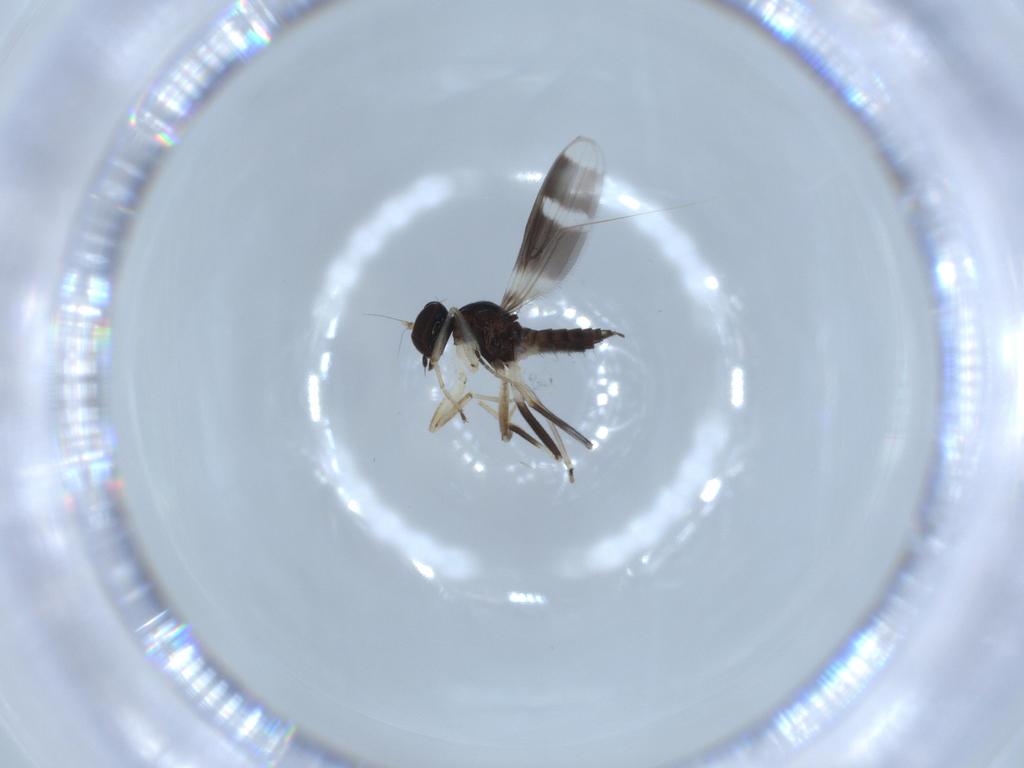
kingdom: Animalia
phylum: Arthropoda
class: Insecta
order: Diptera
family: Hybotidae
